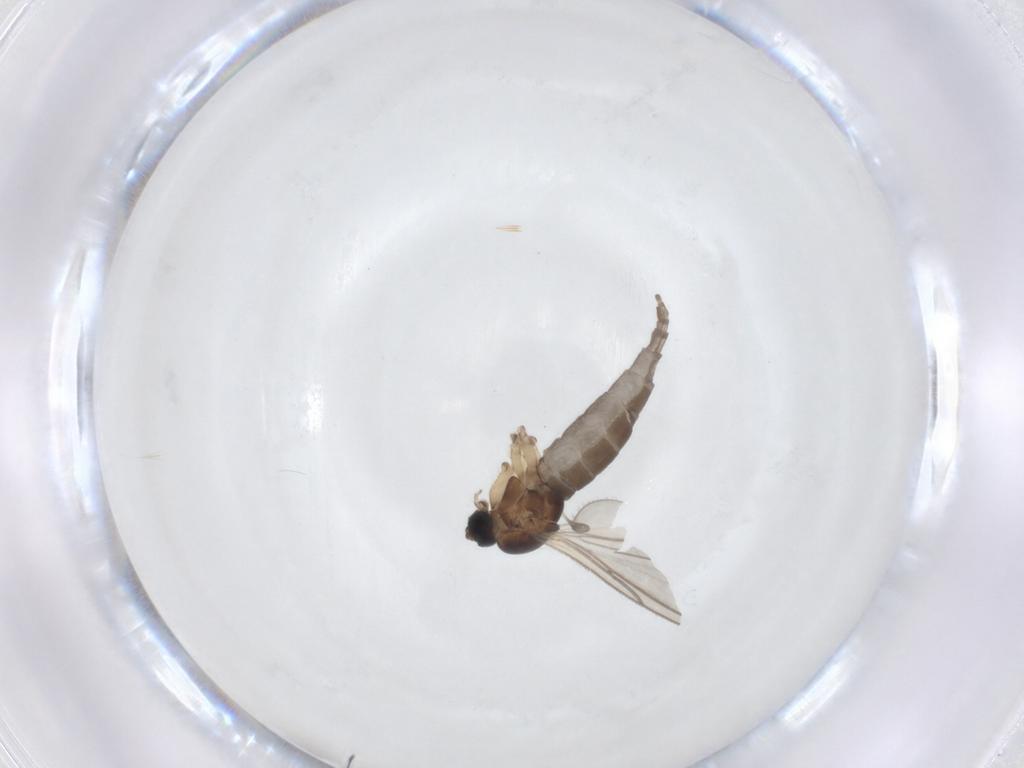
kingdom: Animalia
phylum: Arthropoda
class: Insecta
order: Diptera
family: Sciaridae
